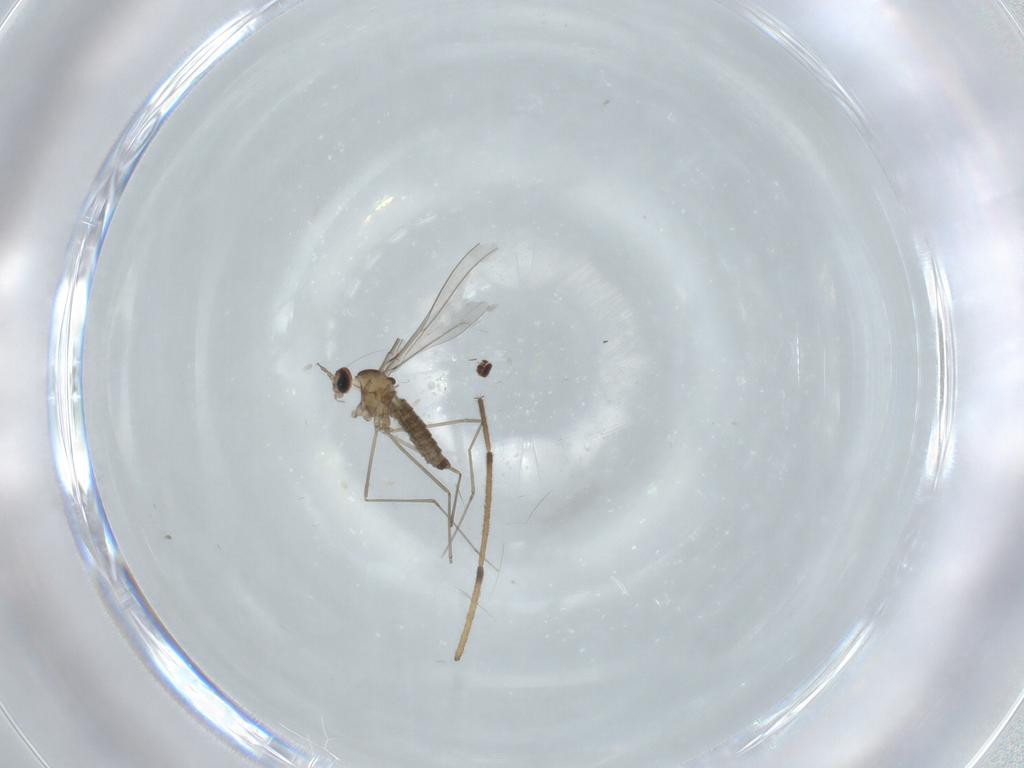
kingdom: Animalia
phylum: Arthropoda
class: Insecta
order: Diptera
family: Cecidomyiidae
